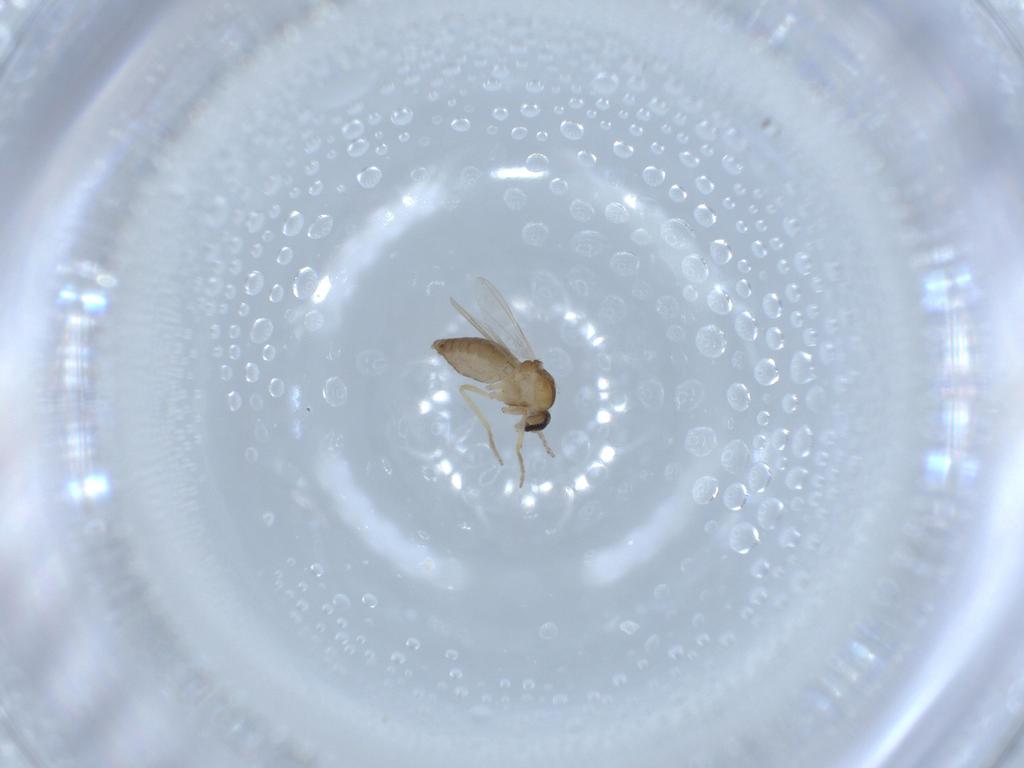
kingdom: Animalia
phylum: Arthropoda
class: Insecta
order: Diptera
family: Ceratopogonidae
